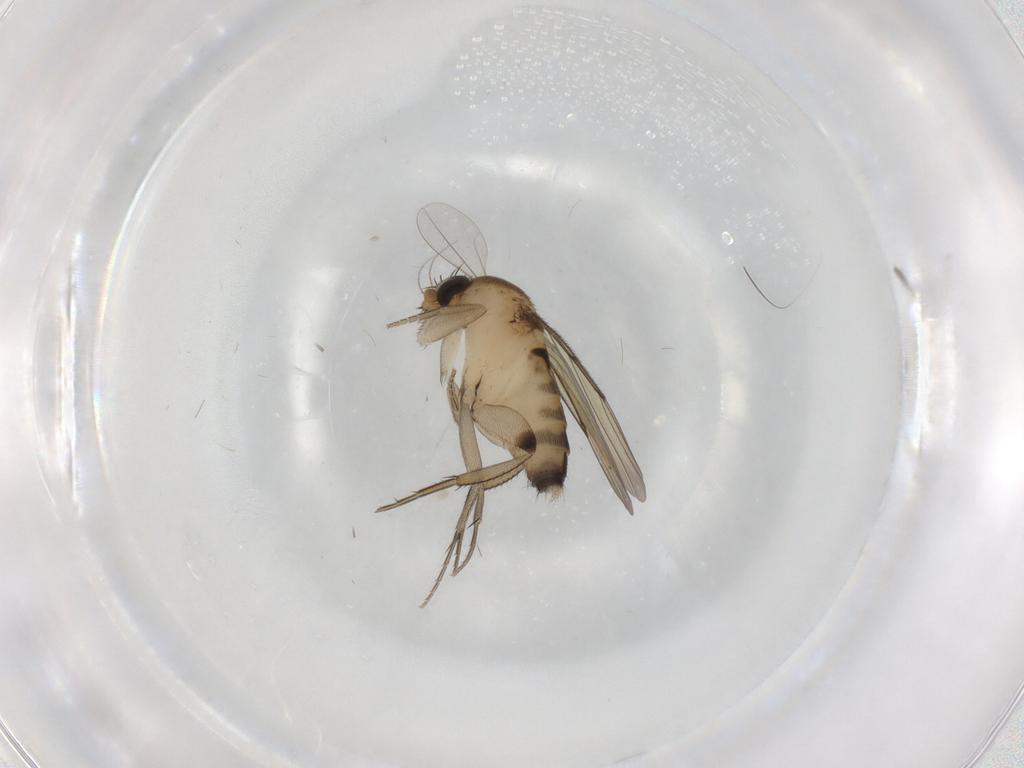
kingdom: Animalia
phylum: Arthropoda
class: Insecta
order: Diptera
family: Phoridae
